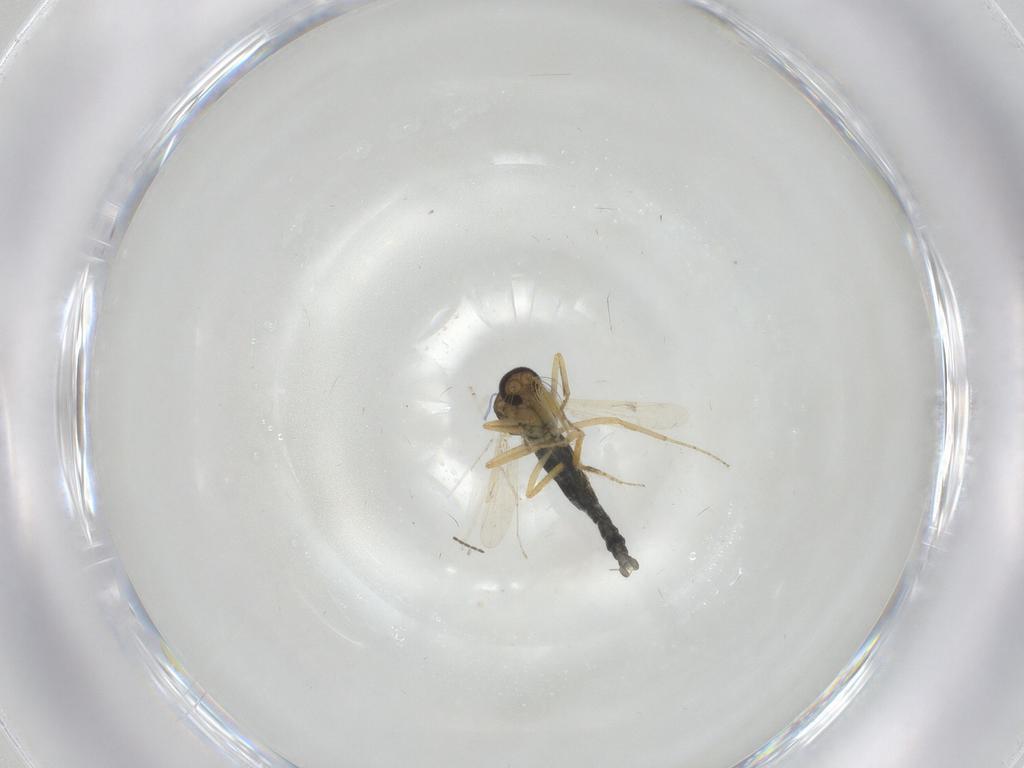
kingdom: Animalia
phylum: Arthropoda
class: Insecta
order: Diptera
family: Ceratopogonidae
